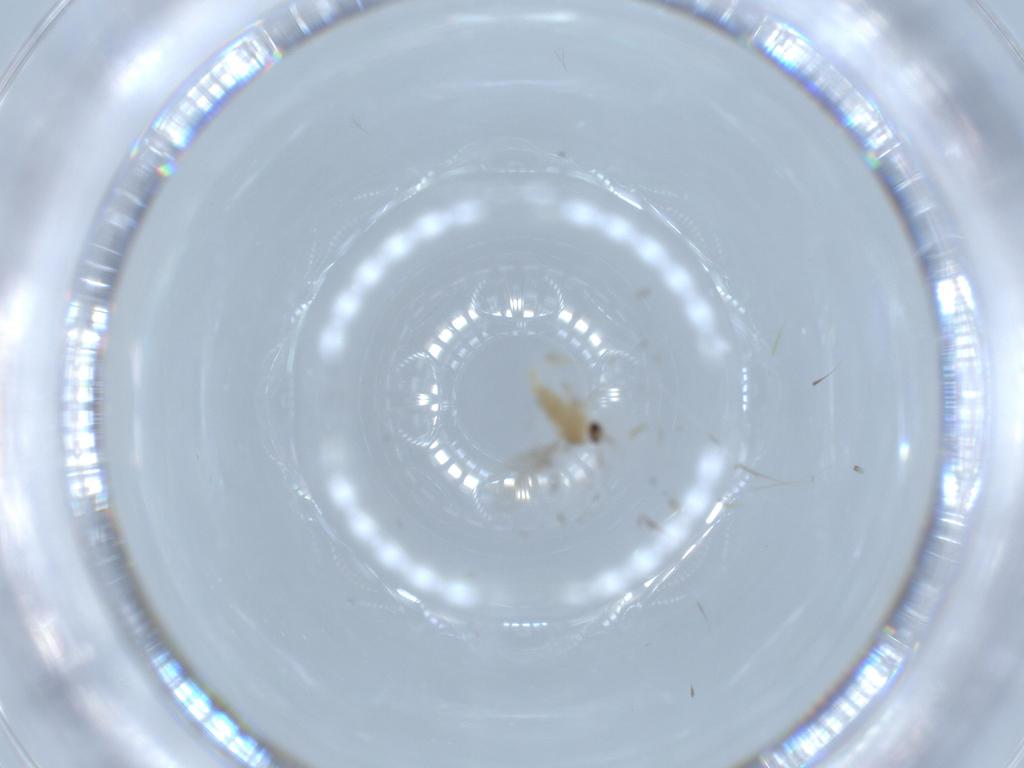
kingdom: Animalia
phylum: Arthropoda
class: Insecta
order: Diptera
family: Cecidomyiidae
